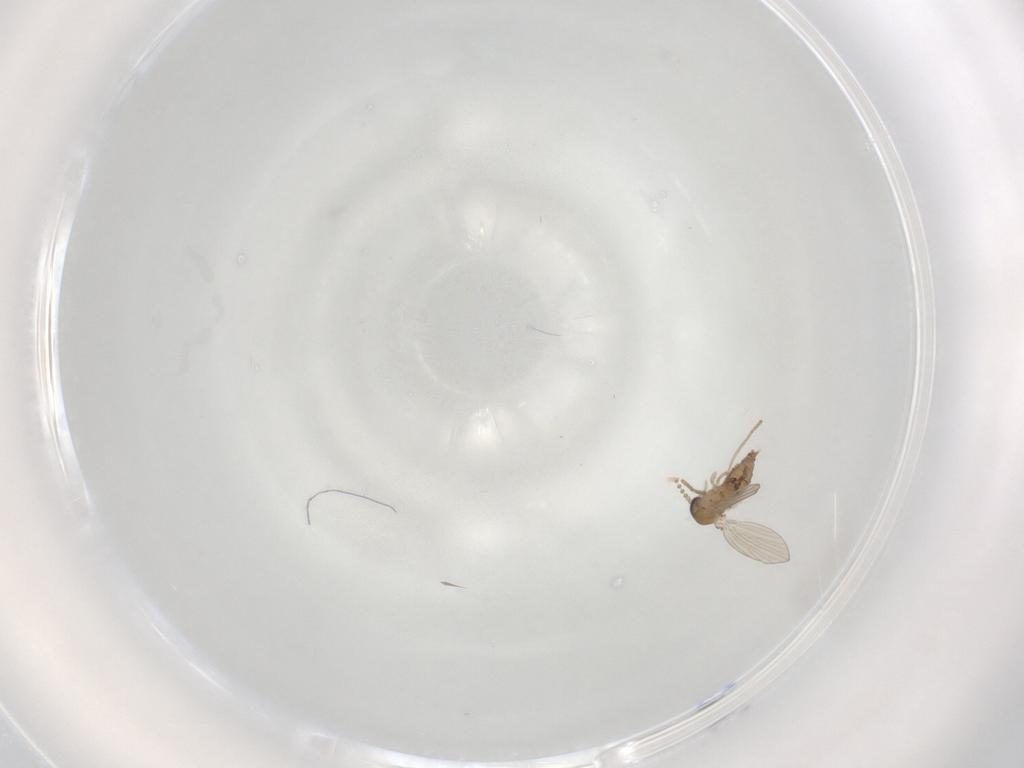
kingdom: Animalia
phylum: Arthropoda
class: Insecta
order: Diptera
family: Psychodidae
